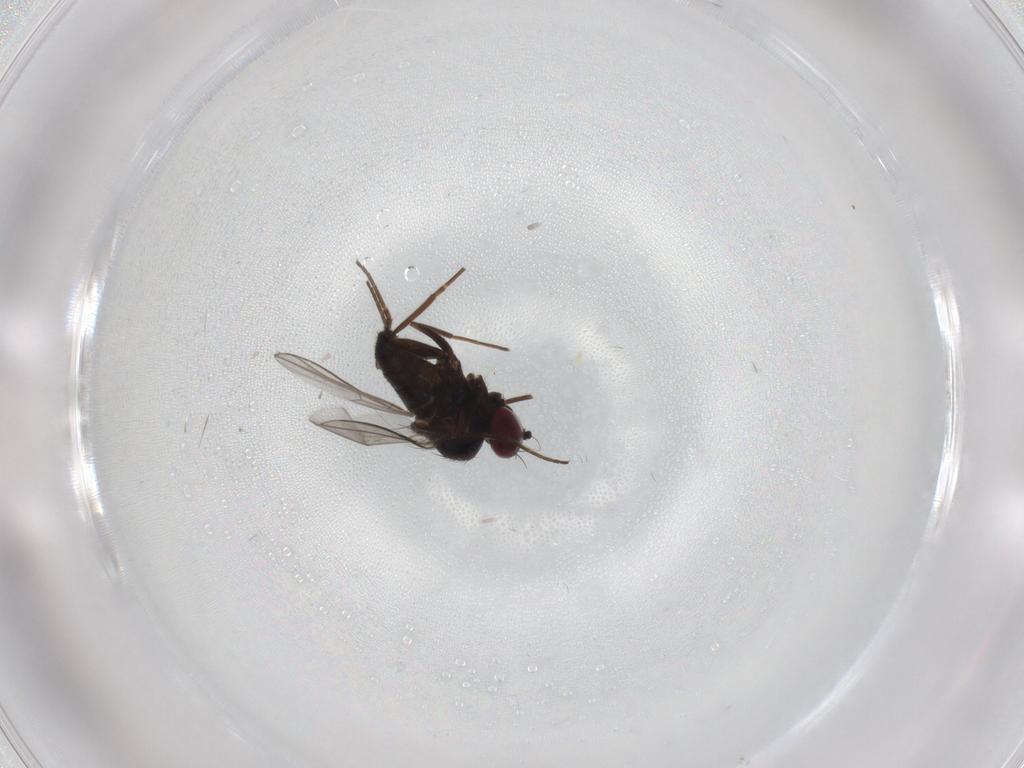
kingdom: Animalia
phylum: Arthropoda
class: Insecta
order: Diptera
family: Dolichopodidae
